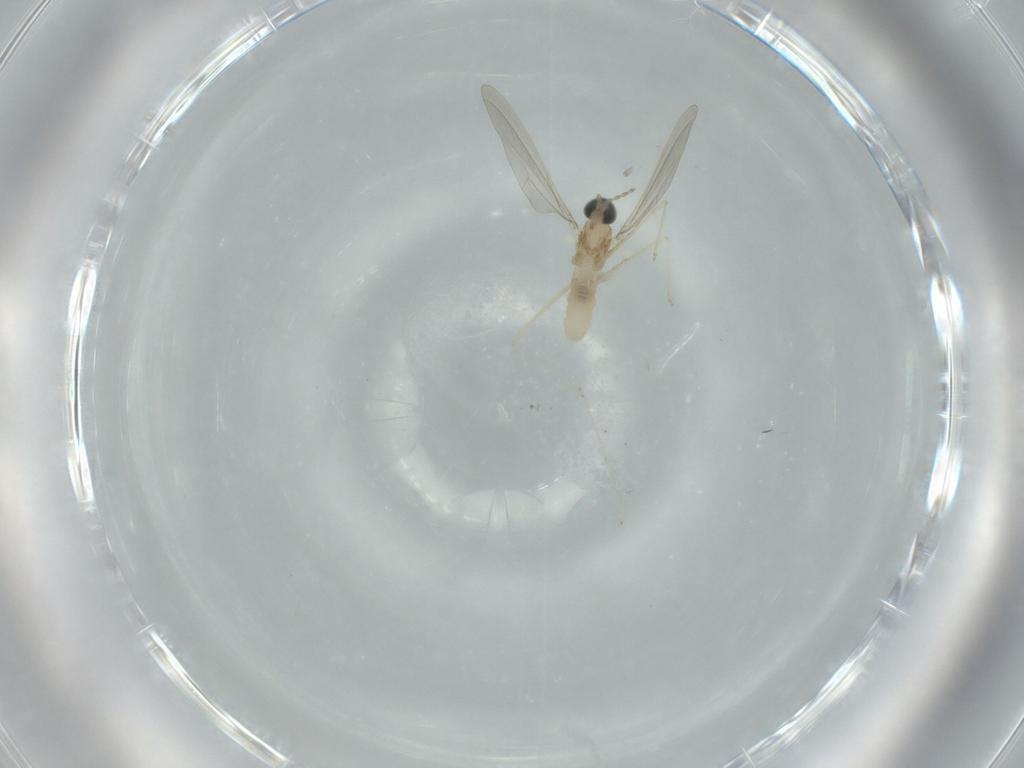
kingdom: Animalia
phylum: Arthropoda
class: Insecta
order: Diptera
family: Cecidomyiidae
